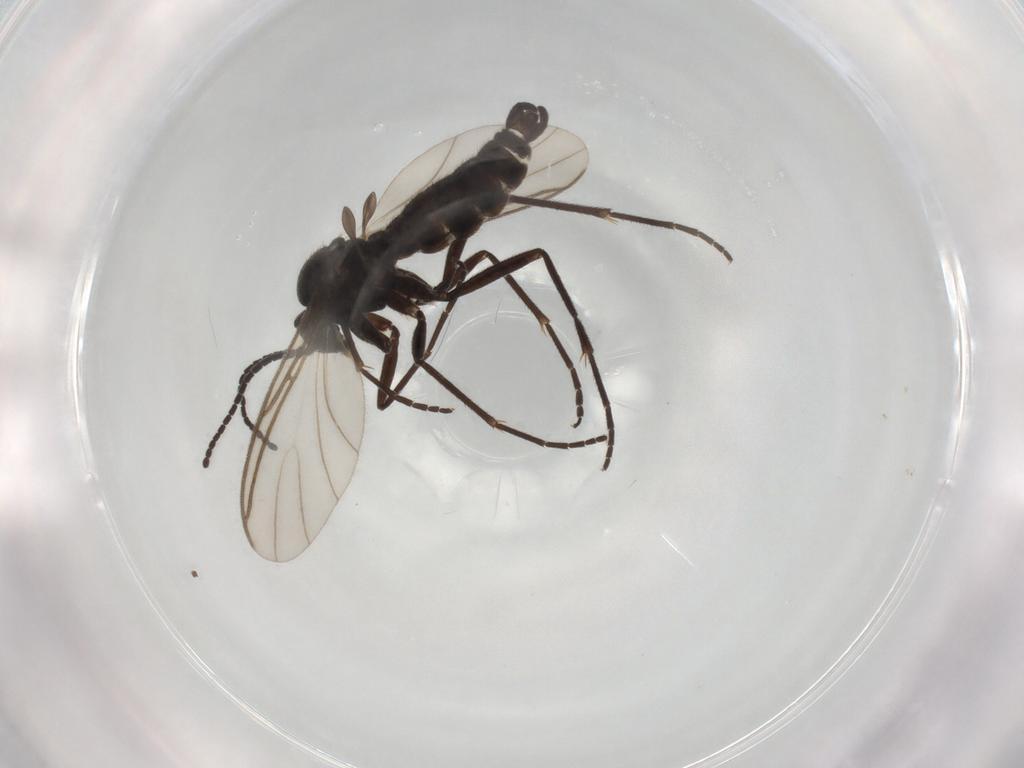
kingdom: Animalia
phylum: Arthropoda
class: Insecta
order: Diptera
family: Sciaridae
